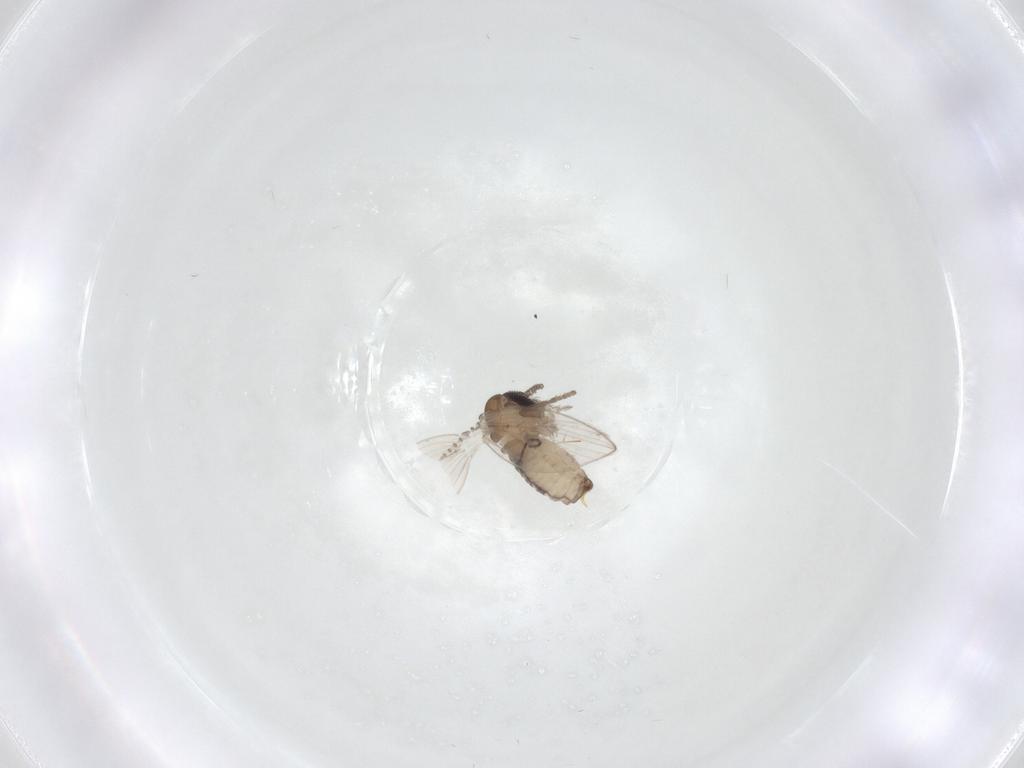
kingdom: Animalia
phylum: Arthropoda
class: Insecta
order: Diptera
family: Psychodidae
